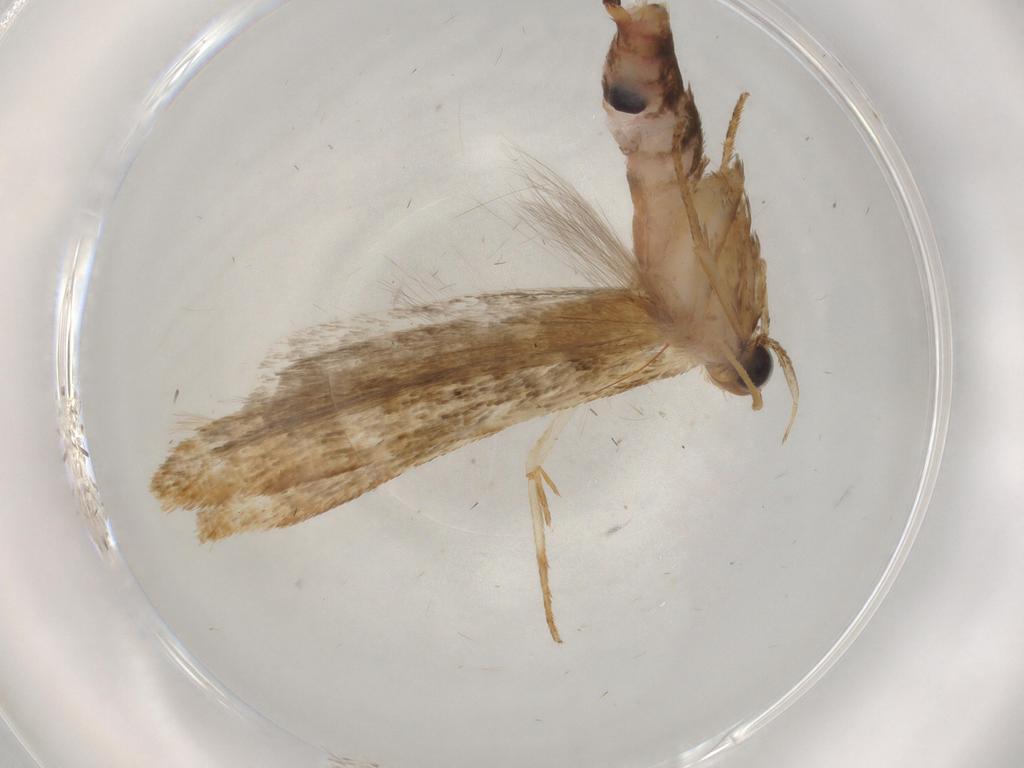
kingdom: Animalia
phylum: Arthropoda
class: Insecta
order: Lepidoptera
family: Gelechiidae
